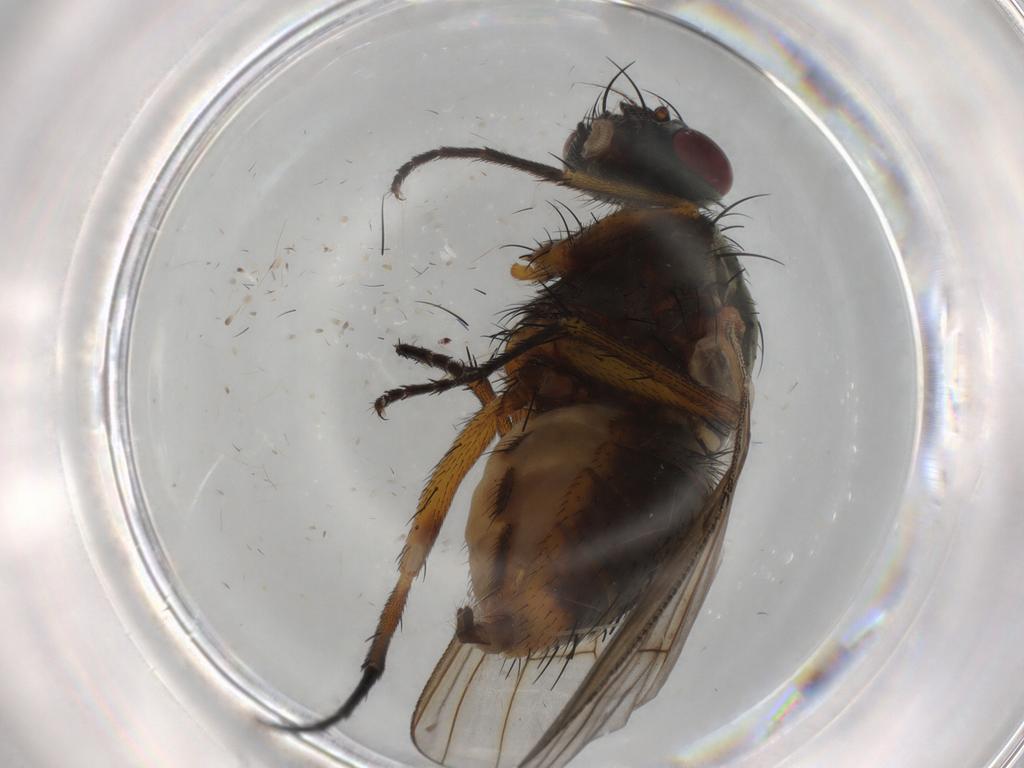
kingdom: Animalia
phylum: Arthropoda
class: Insecta
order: Diptera
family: Muscidae
